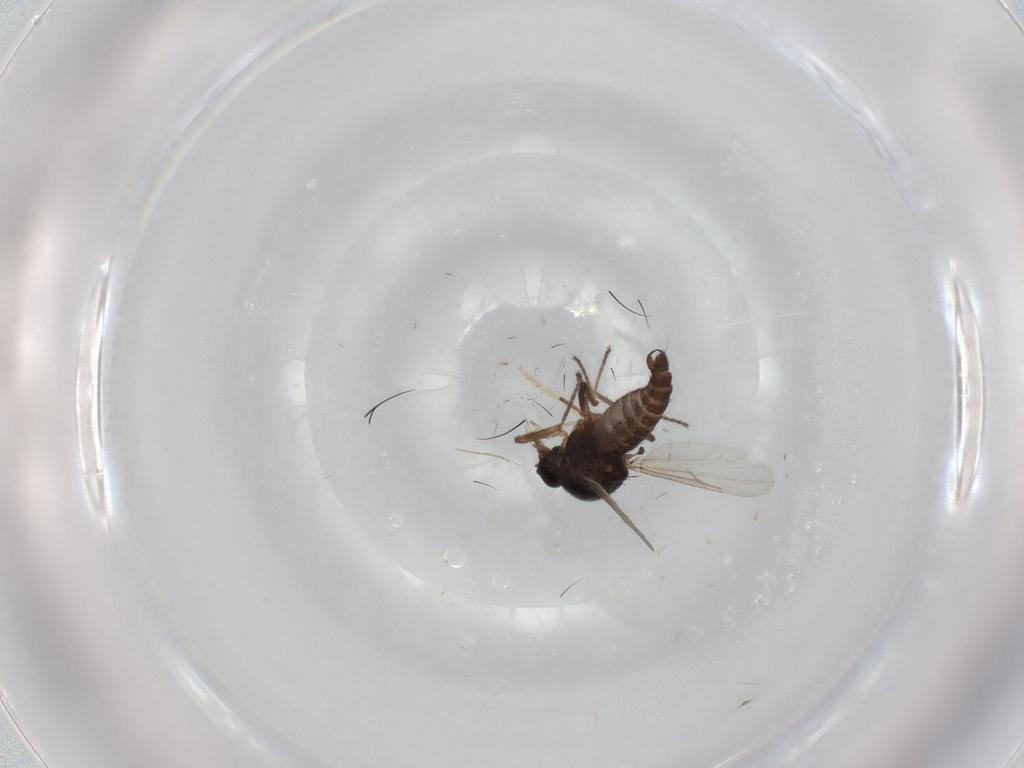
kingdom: Animalia
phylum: Arthropoda
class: Insecta
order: Diptera
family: Ceratopogonidae
